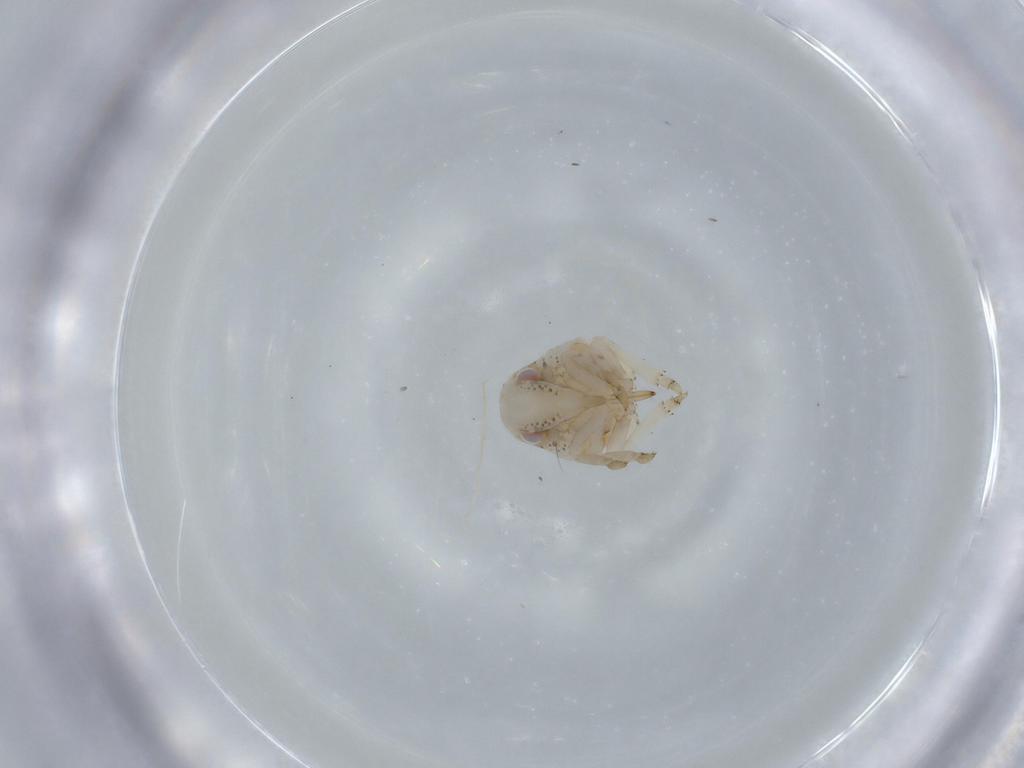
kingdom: Animalia
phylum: Arthropoda
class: Insecta
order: Hemiptera
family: Acanaloniidae
